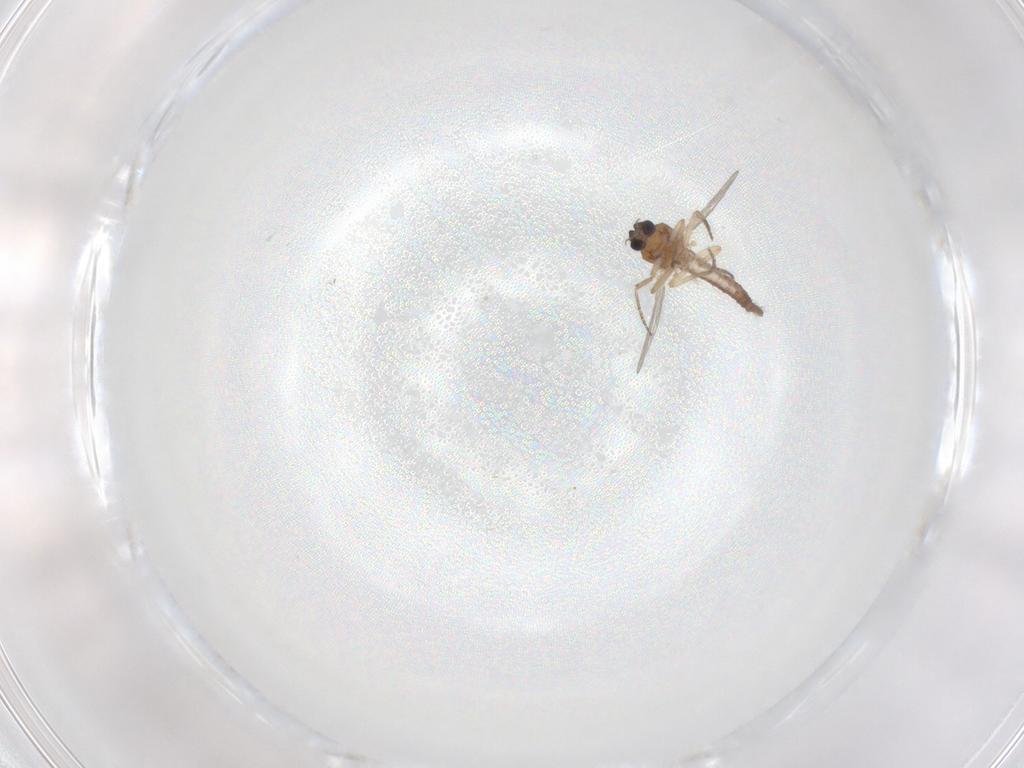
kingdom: Animalia
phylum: Arthropoda
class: Insecta
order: Diptera
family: Ceratopogonidae
